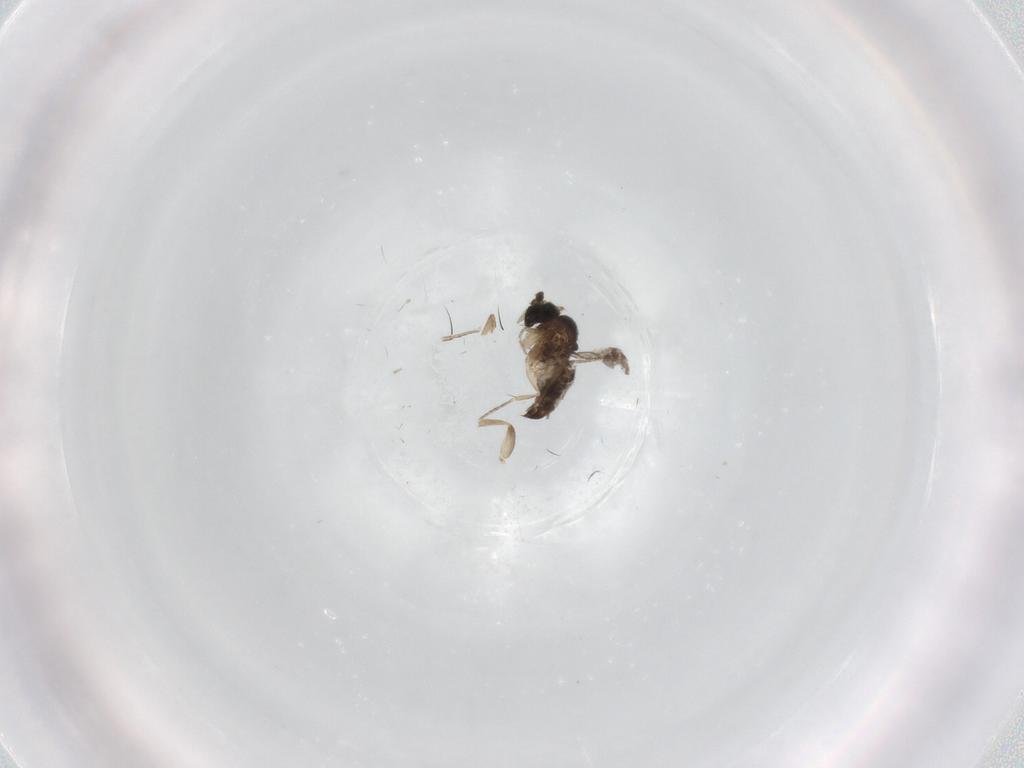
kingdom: Animalia
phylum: Arthropoda
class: Insecta
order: Diptera
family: Phoridae
